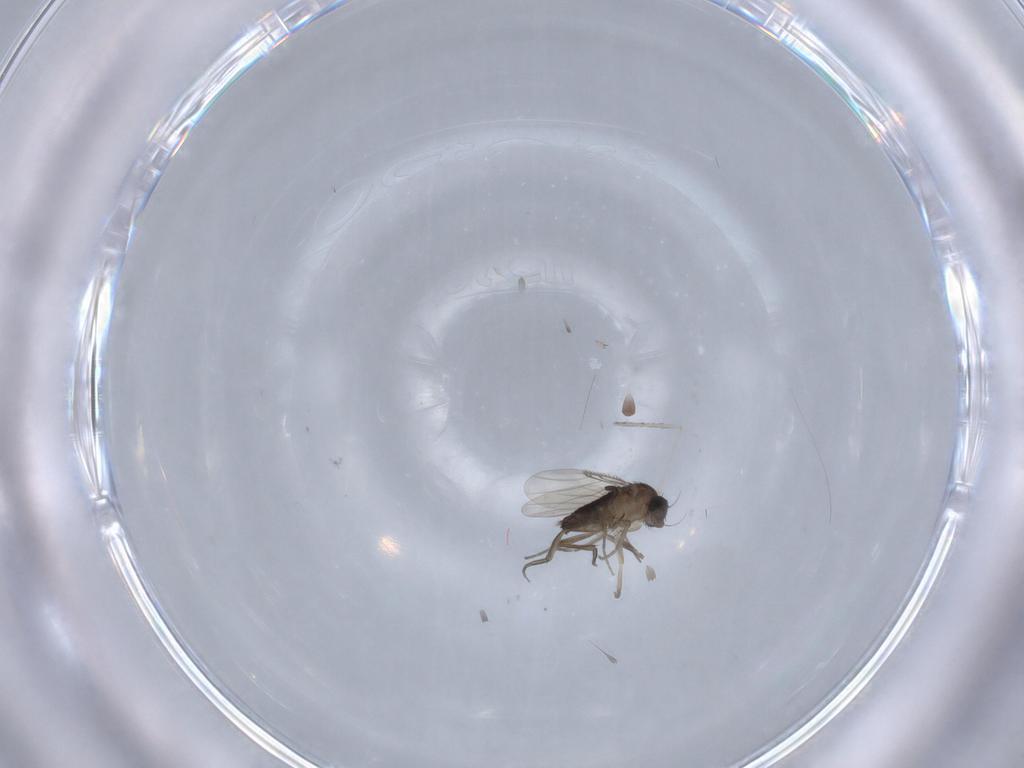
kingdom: Animalia
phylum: Arthropoda
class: Insecta
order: Diptera
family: Phoridae
